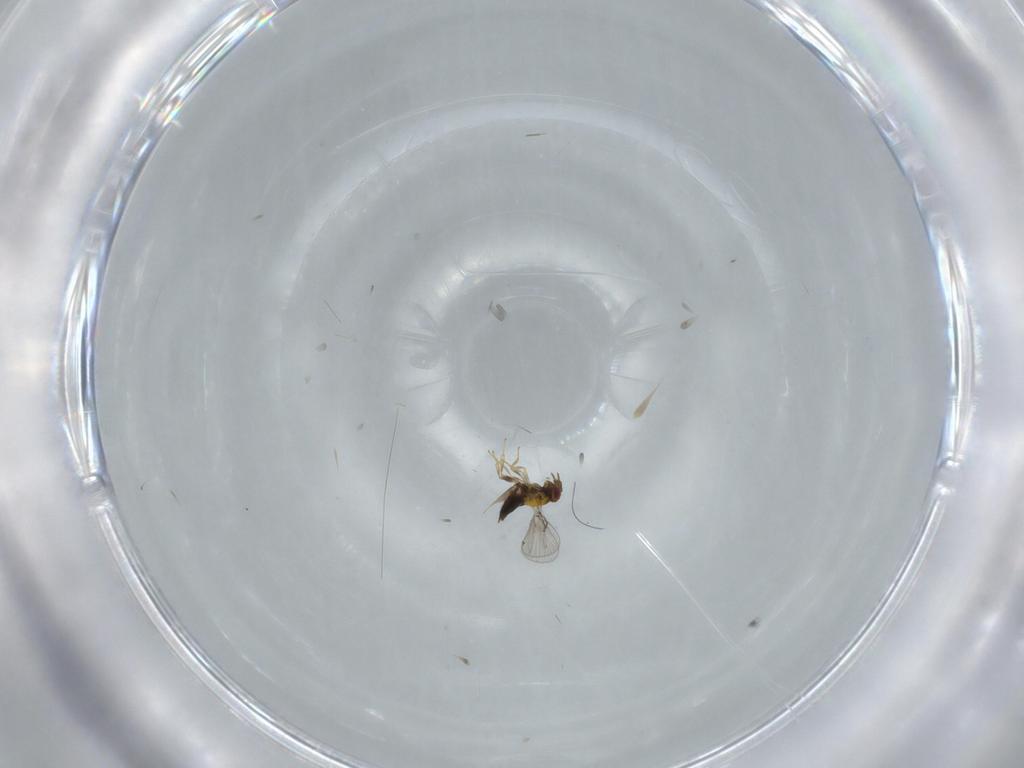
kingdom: Animalia
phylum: Arthropoda
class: Insecta
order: Hymenoptera
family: Trichogrammatidae
